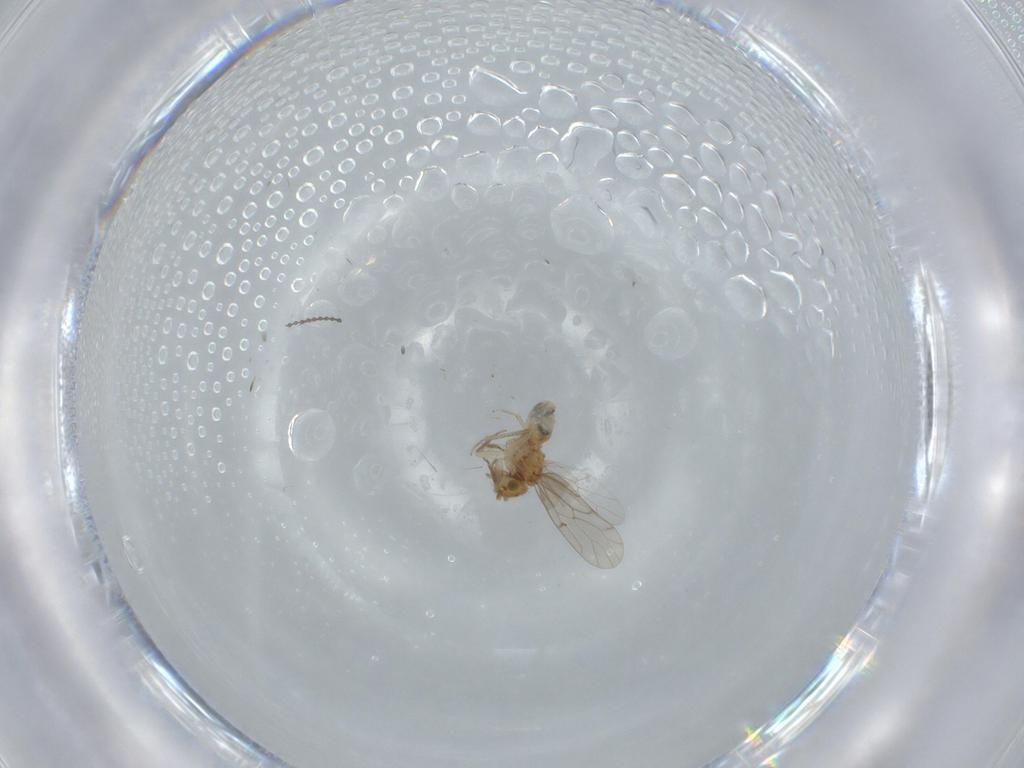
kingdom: Animalia
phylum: Arthropoda
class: Insecta
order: Psocodea
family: Ectopsocidae
